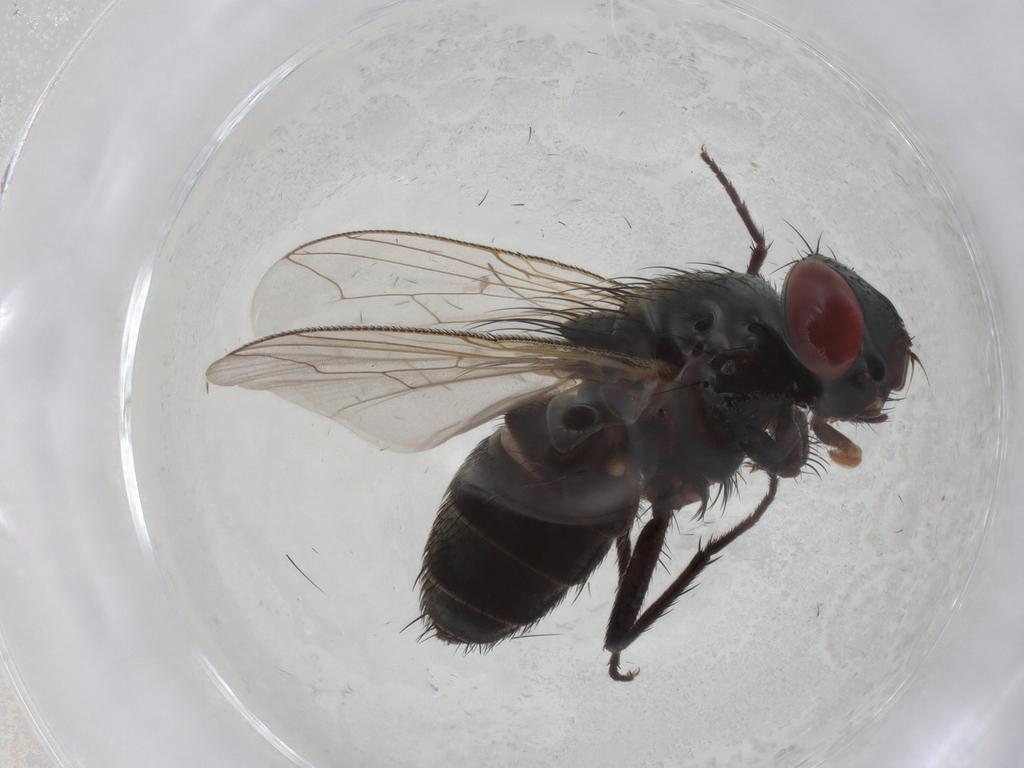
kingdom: Animalia
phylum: Arthropoda
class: Insecta
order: Diptera
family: Sarcophagidae
